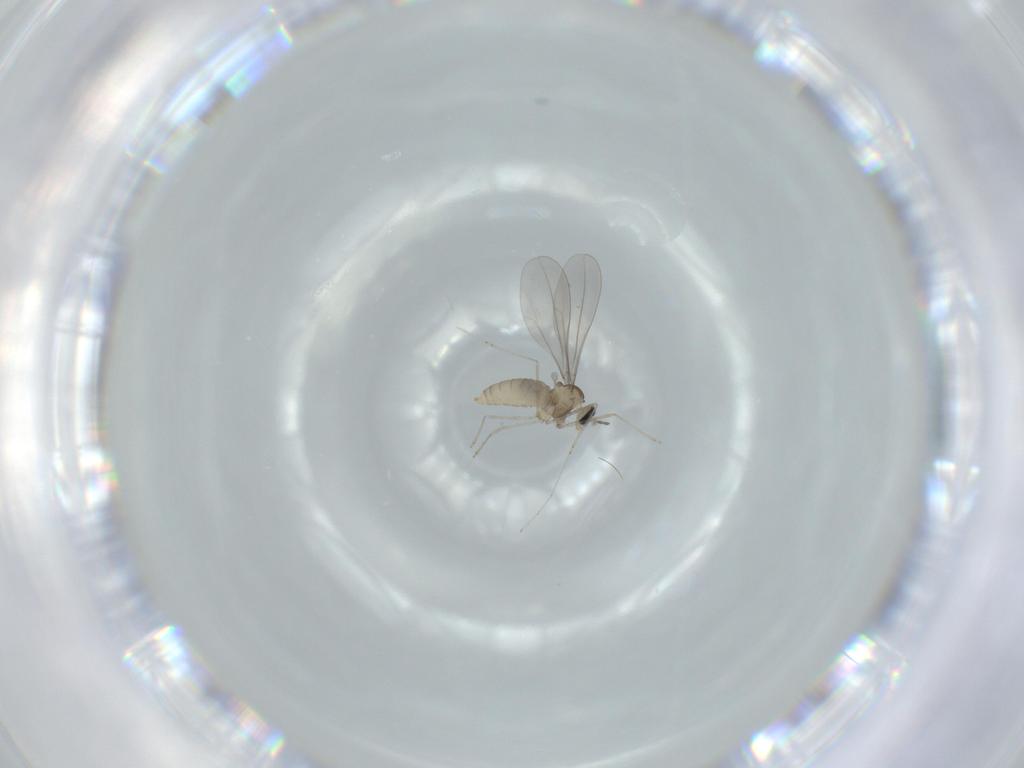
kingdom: Animalia
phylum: Arthropoda
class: Insecta
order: Diptera
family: Cecidomyiidae
